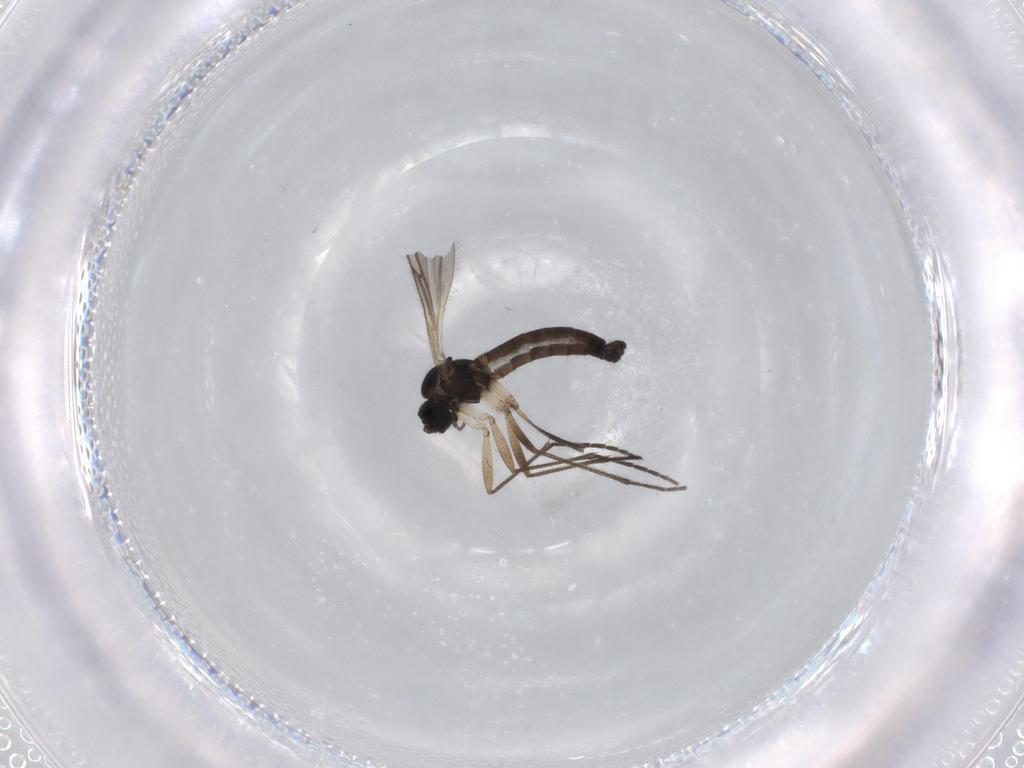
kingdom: Animalia
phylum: Arthropoda
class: Insecta
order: Diptera
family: Sciaridae
